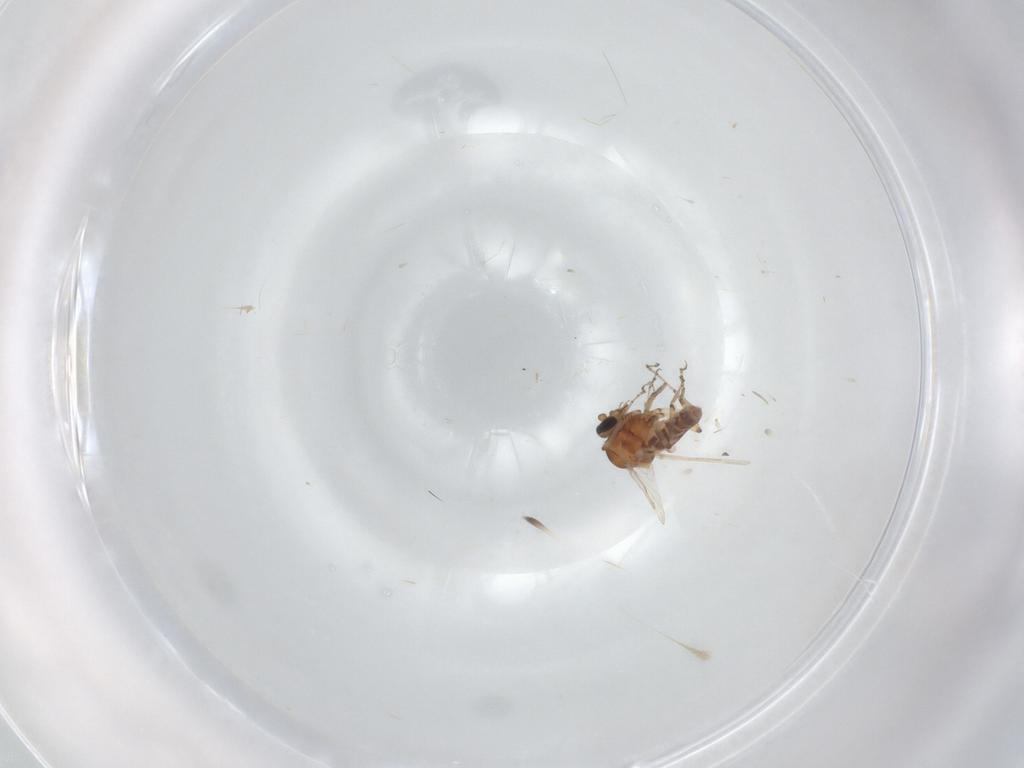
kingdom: Animalia
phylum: Arthropoda
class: Insecta
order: Diptera
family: Ceratopogonidae
